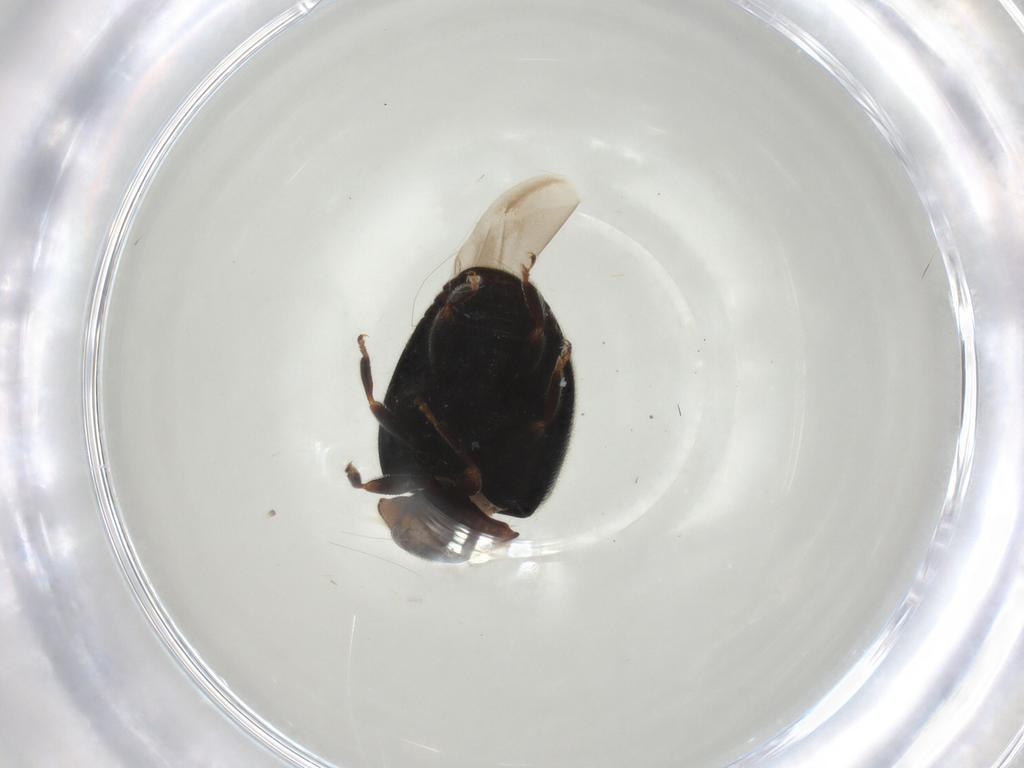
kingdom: Animalia
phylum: Arthropoda
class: Insecta
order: Coleoptera
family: Coccinellidae
